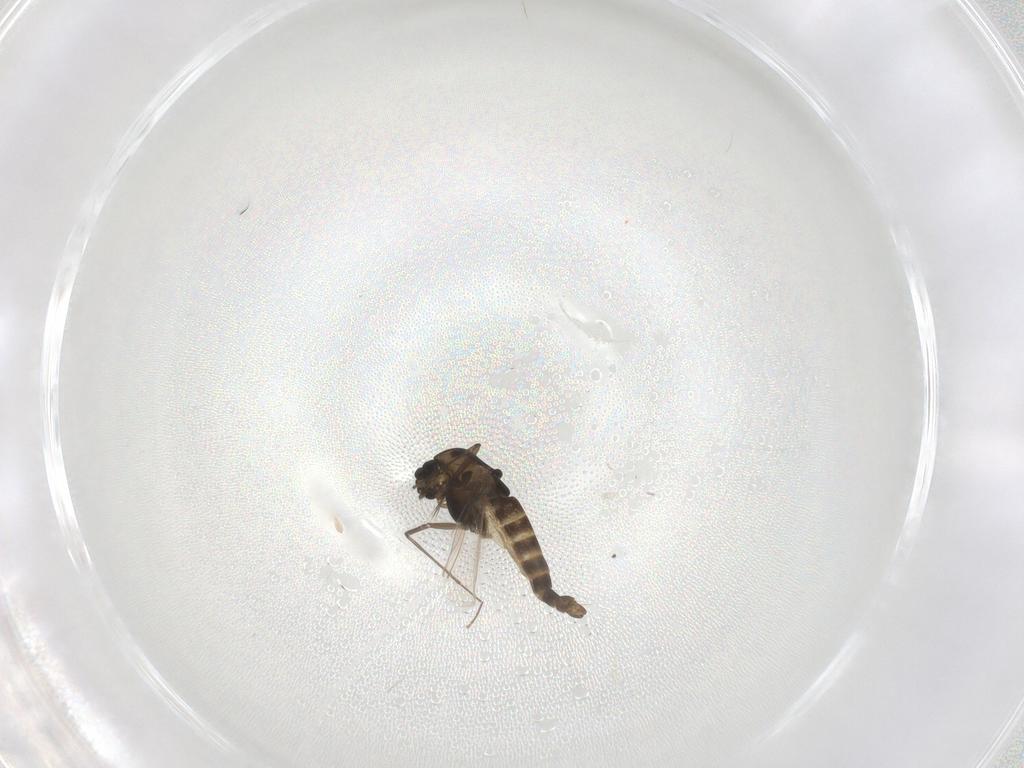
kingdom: Animalia
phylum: Arthropoda
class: Insecta
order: Diptera
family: Chironomidae
